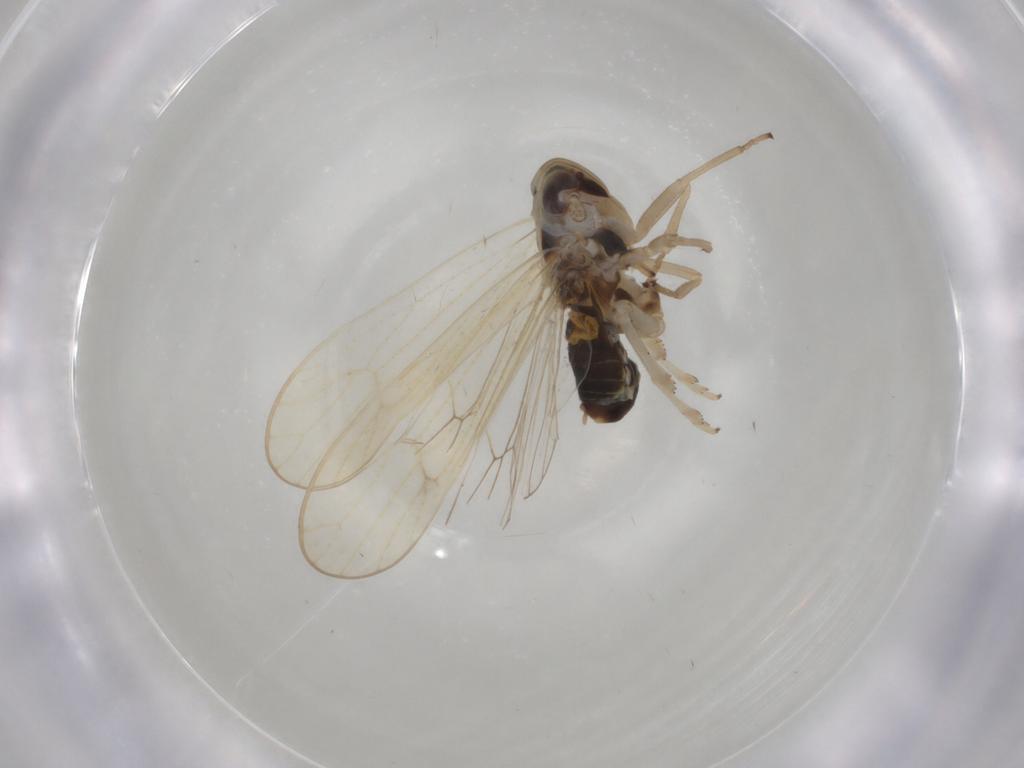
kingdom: Animalia
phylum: Arthropoda
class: Insecta
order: Hemiptera
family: Delphacidae
